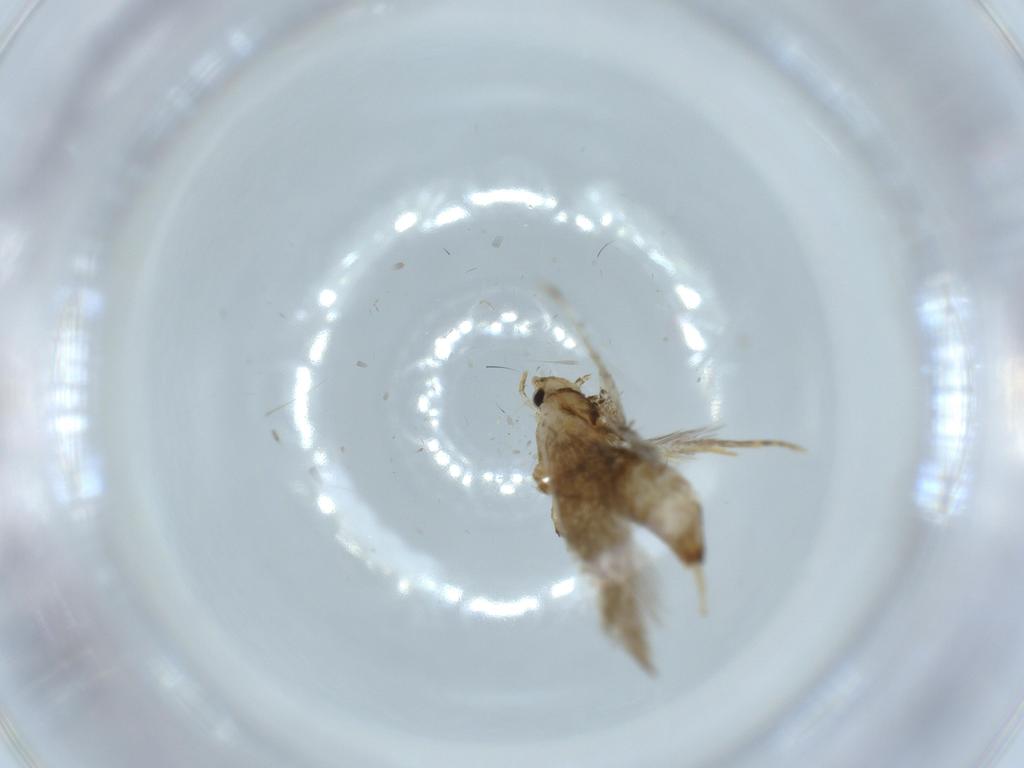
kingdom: Animalia
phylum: Arthropoda
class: Insecta
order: Lepidoptera
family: Tineidae
